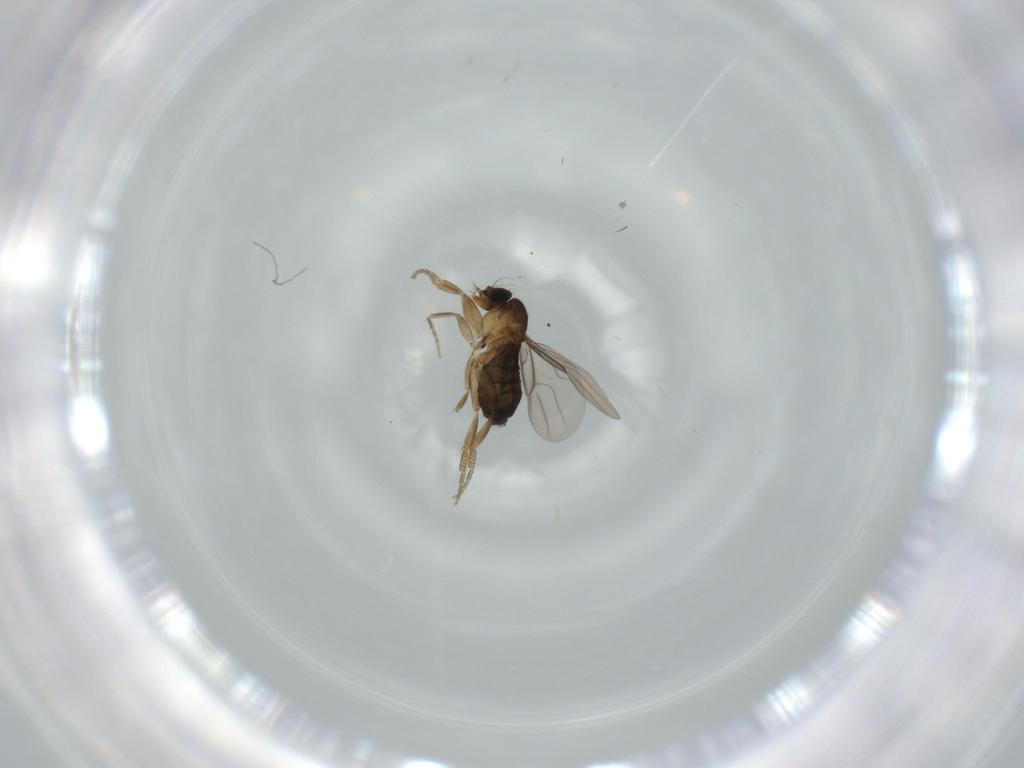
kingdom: Animalia
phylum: Arthropoda
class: Insecta
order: Diptera
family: Phoridae
